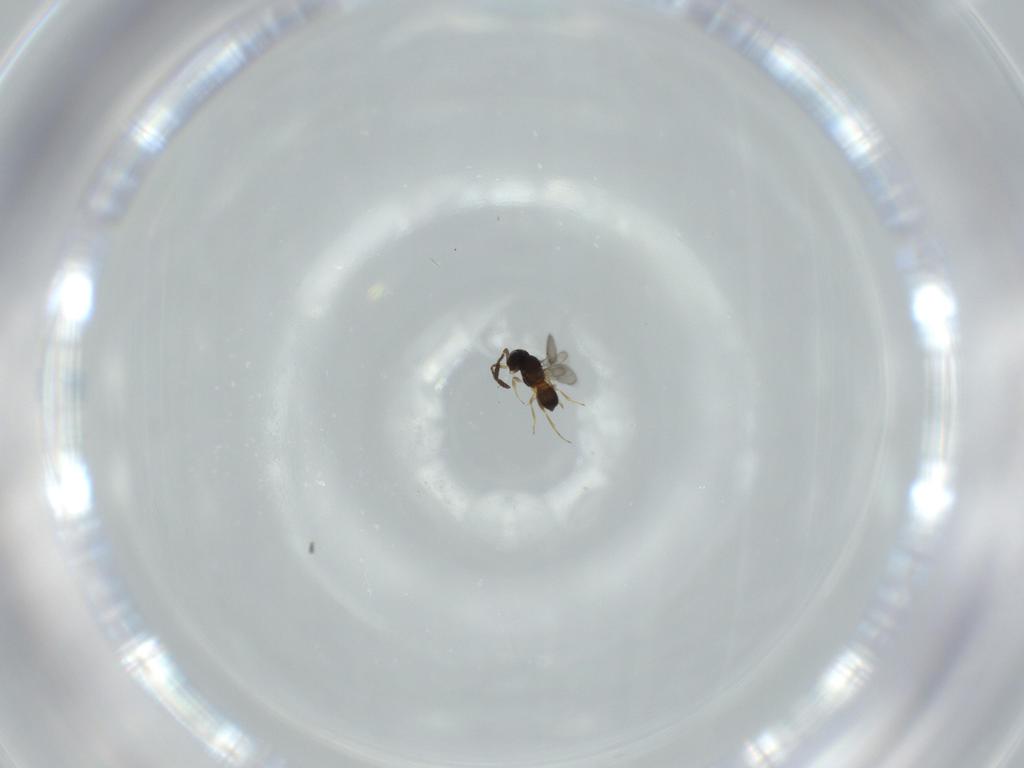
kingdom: Animalia
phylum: Arthropoda
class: Insecta
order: Hymenoptera
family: Scelionidae
